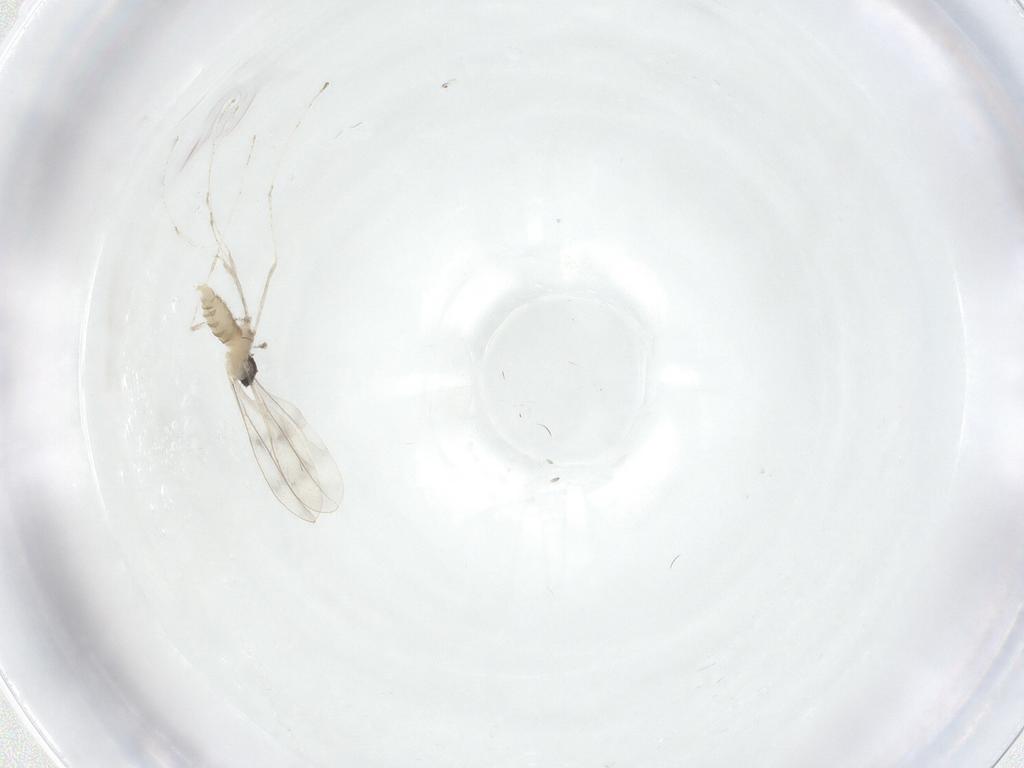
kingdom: Animalia
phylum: Arthropoda
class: Insecta
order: Diptera
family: Cecidomyiidae
